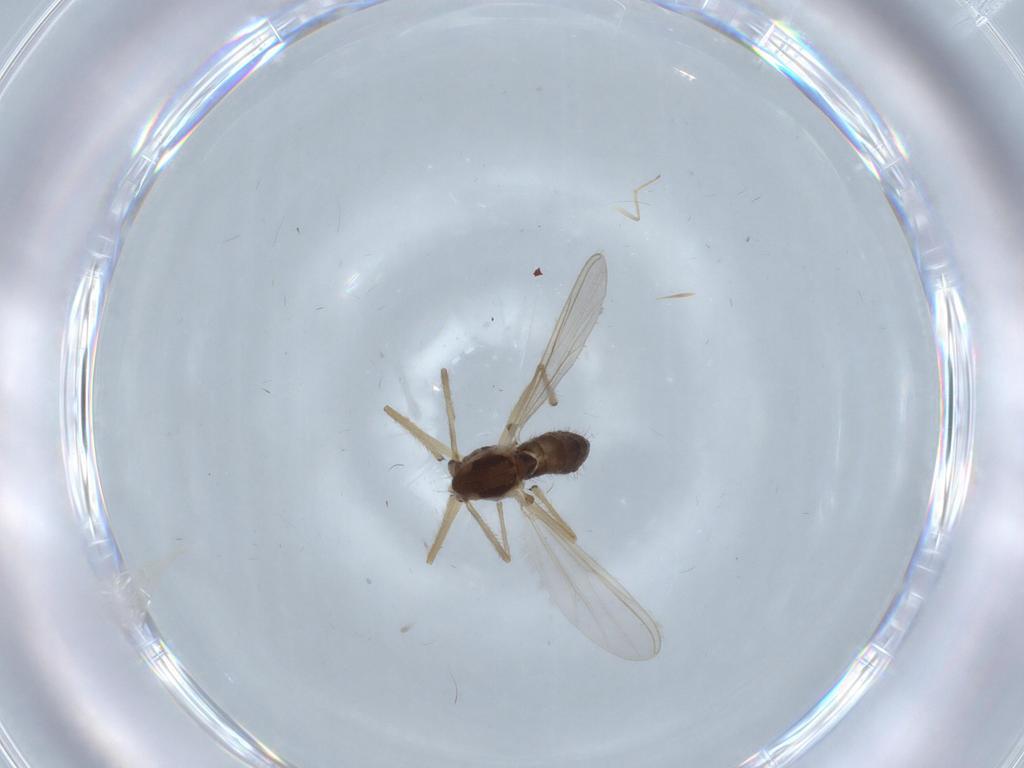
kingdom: Animalia
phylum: Arthropoda
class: Insecta
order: Diptera
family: Chironomidae
